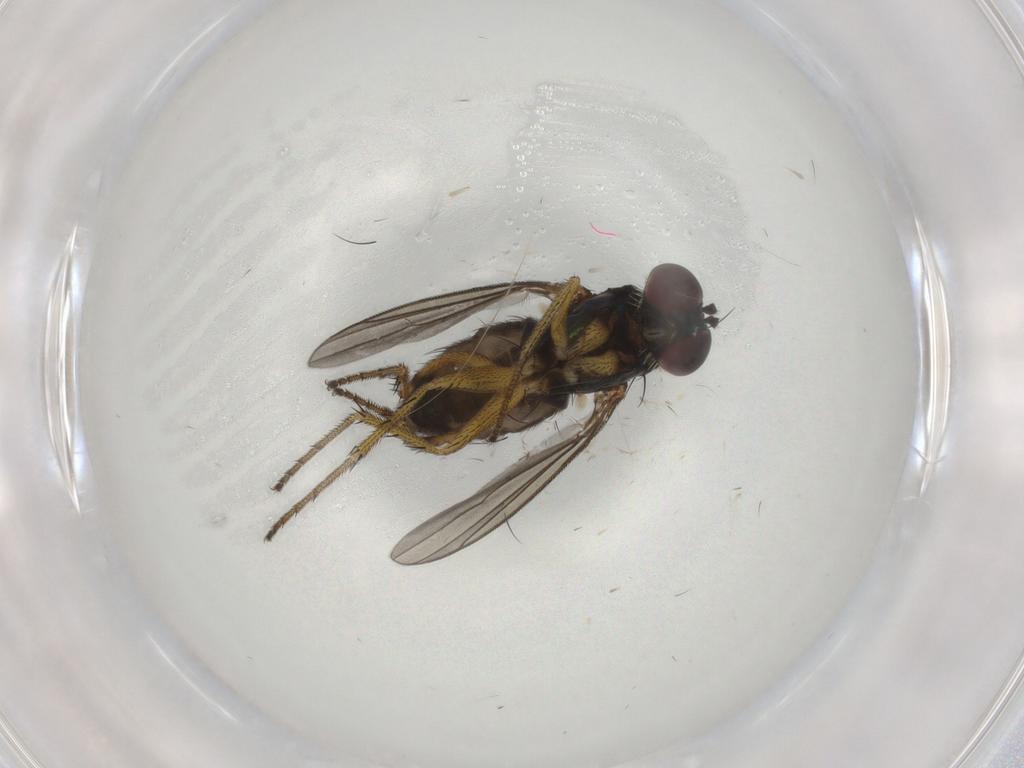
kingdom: Animalia
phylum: Arthropoda
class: Insecta
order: Diptera
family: Dolichopodidae
